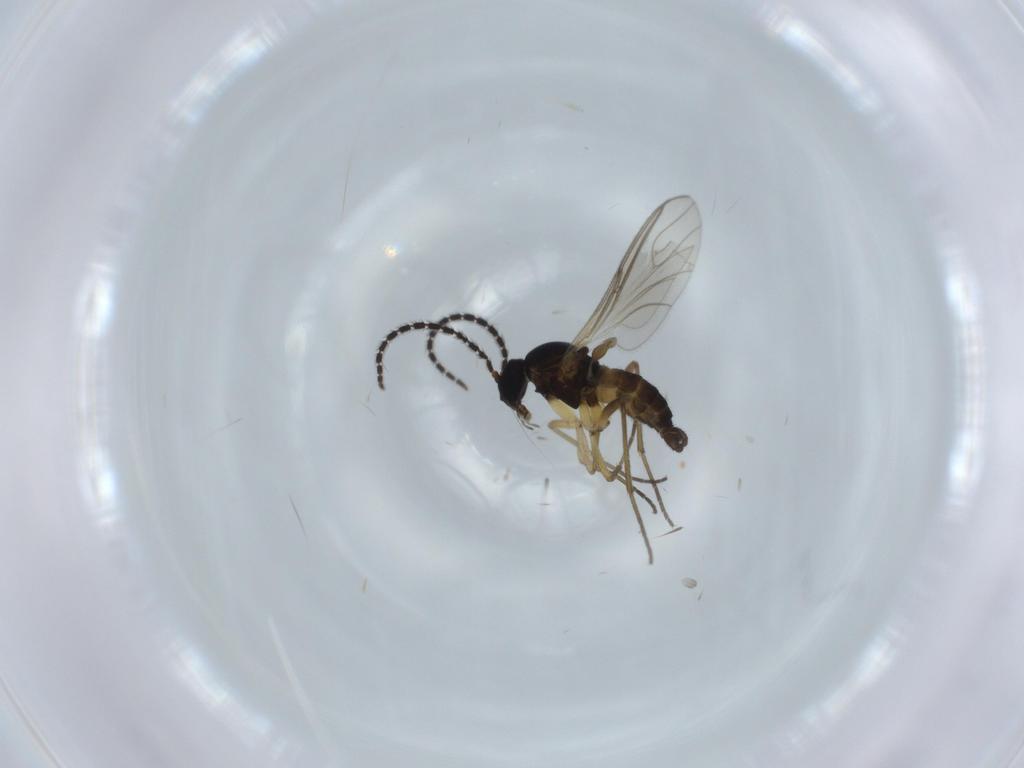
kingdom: Animalia
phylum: Arthropoda
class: Insecta
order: Diptera
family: Sciaridae
